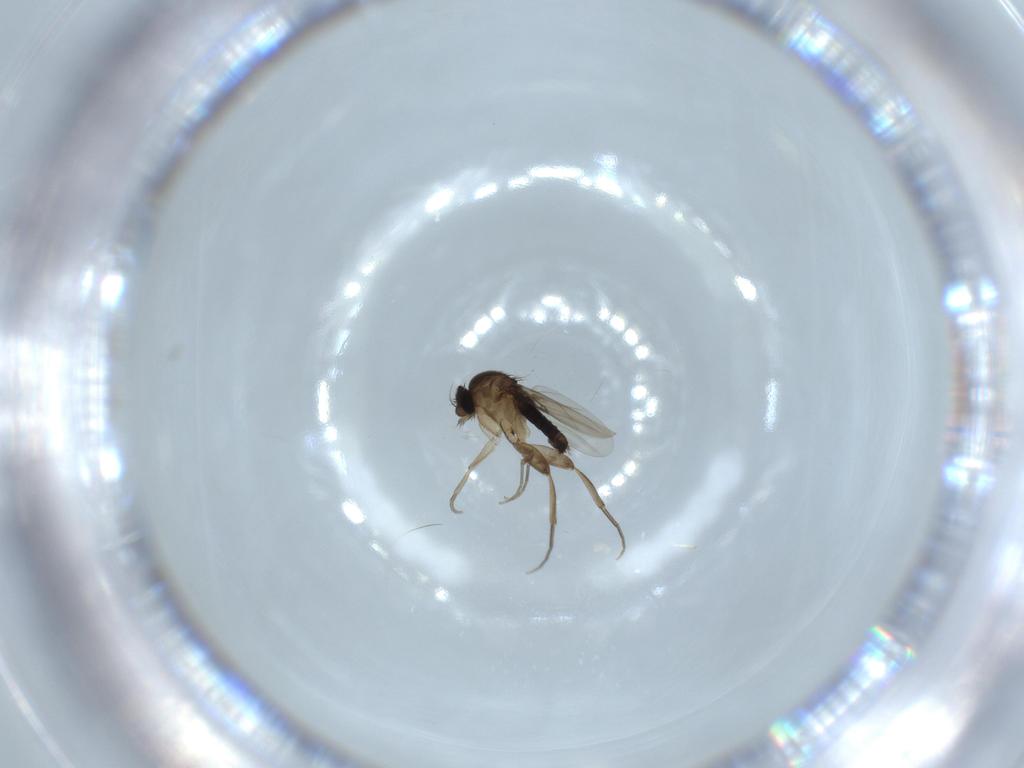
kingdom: Animalia
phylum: Arthropoda
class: Insecta
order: Diptera
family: Phoridae
